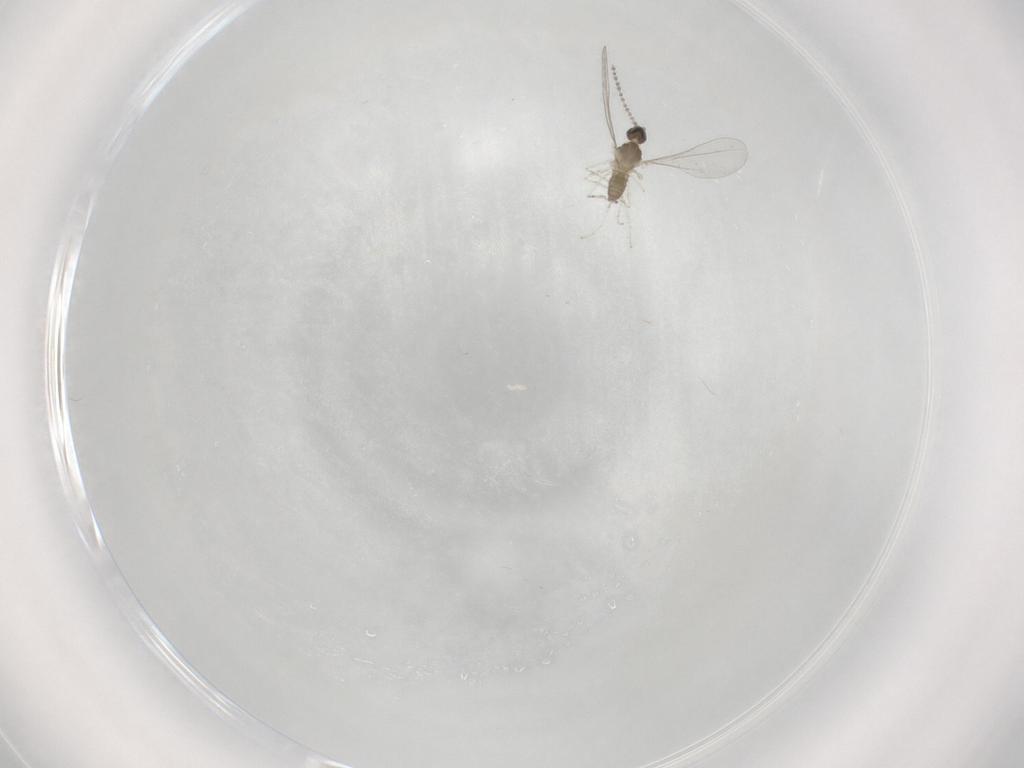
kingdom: Animalia
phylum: Arthropoda
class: Insecta
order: Diptera
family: Cecidomyiidae
